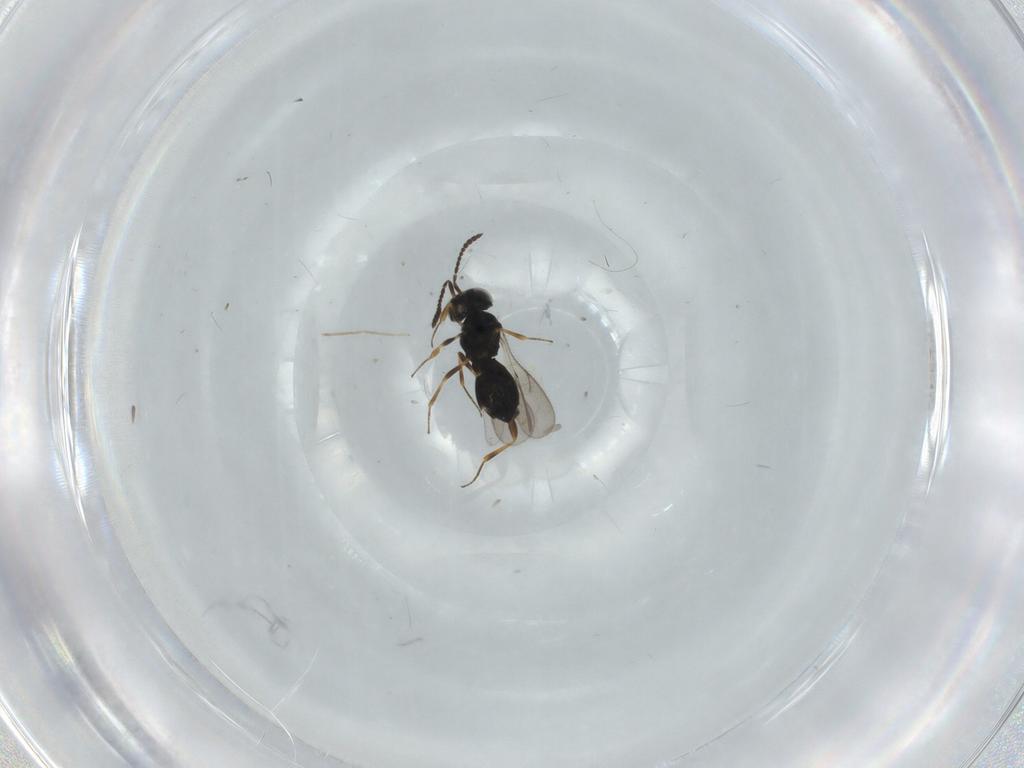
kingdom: Animalia
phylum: Arthropoda
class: Insecta
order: Hymenoptera
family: Scelionidae
